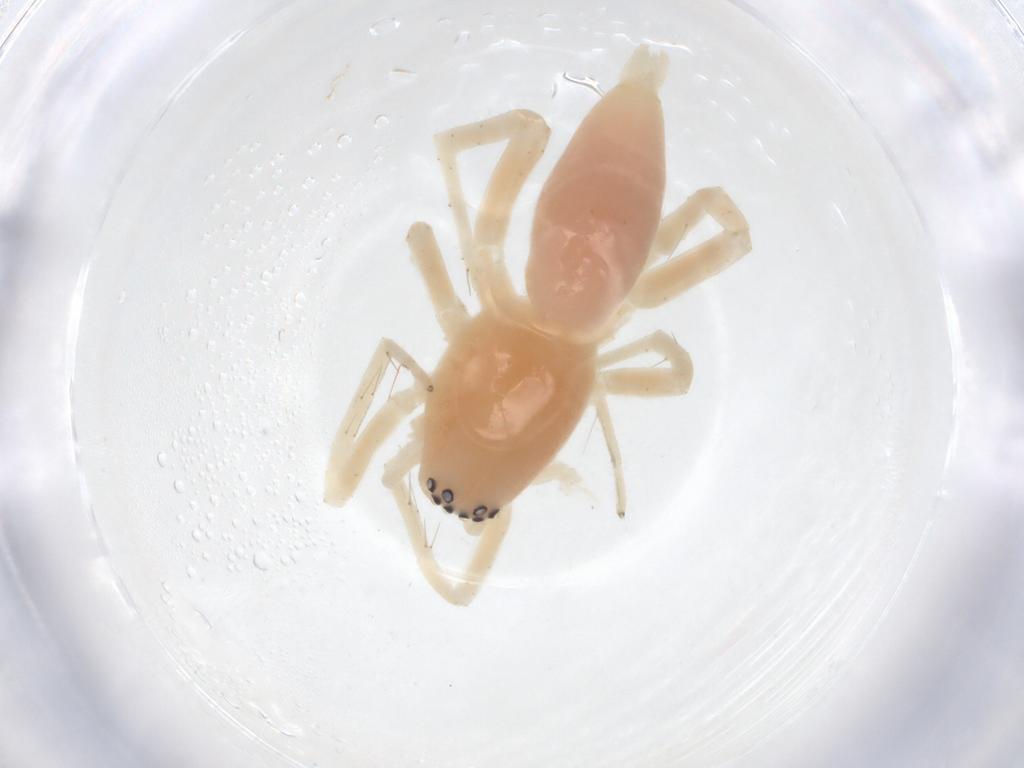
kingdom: Animalia
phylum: Arthropoda
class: Arachnida
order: Araneae
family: Clubionidae
